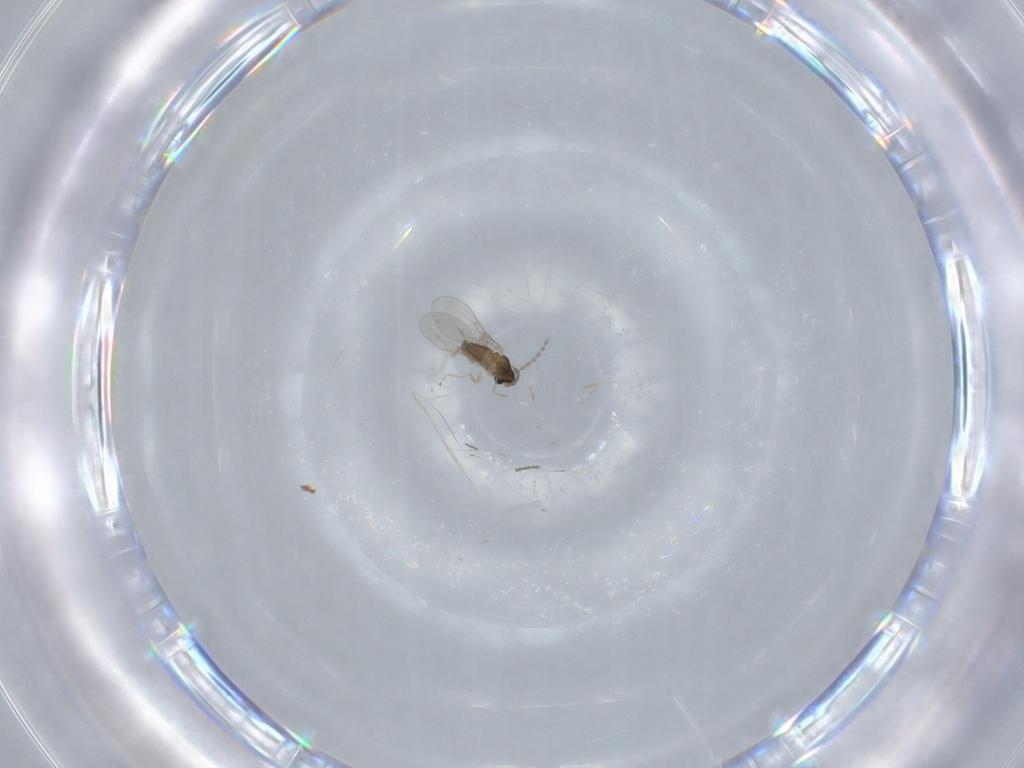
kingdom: Animalia
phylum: Arthropoda
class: Insecta
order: Diptera
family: Cecidomyiidae
